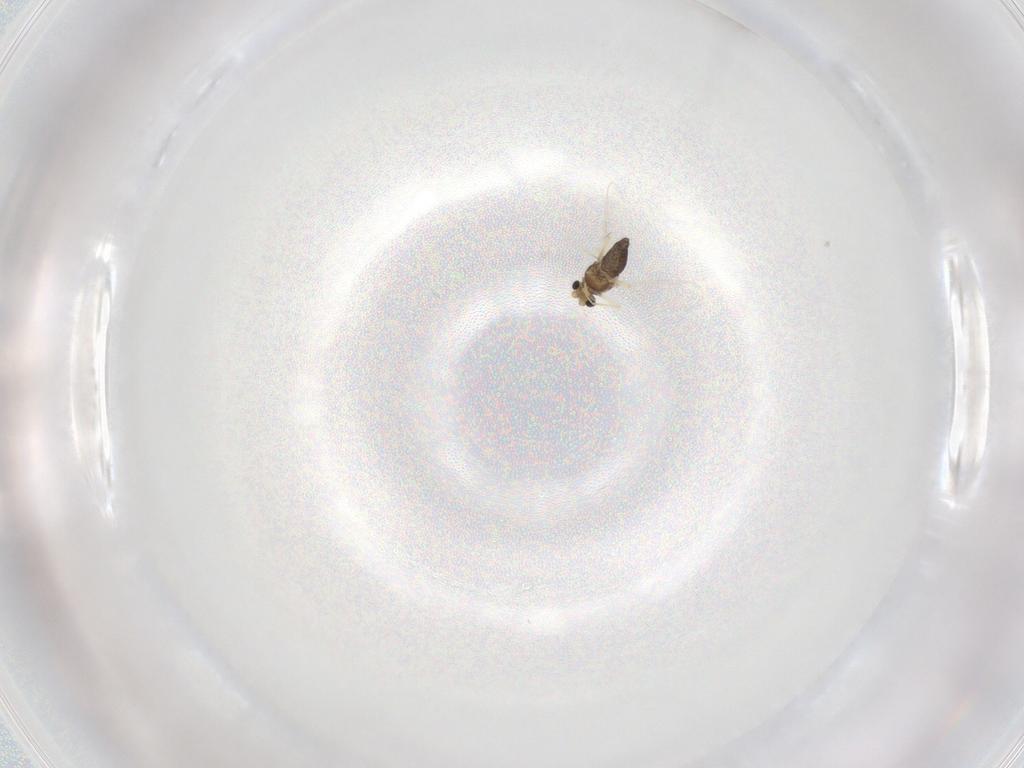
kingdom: Animalia
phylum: Arthropoda
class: Insecta
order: Diptera
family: Chironomidae
